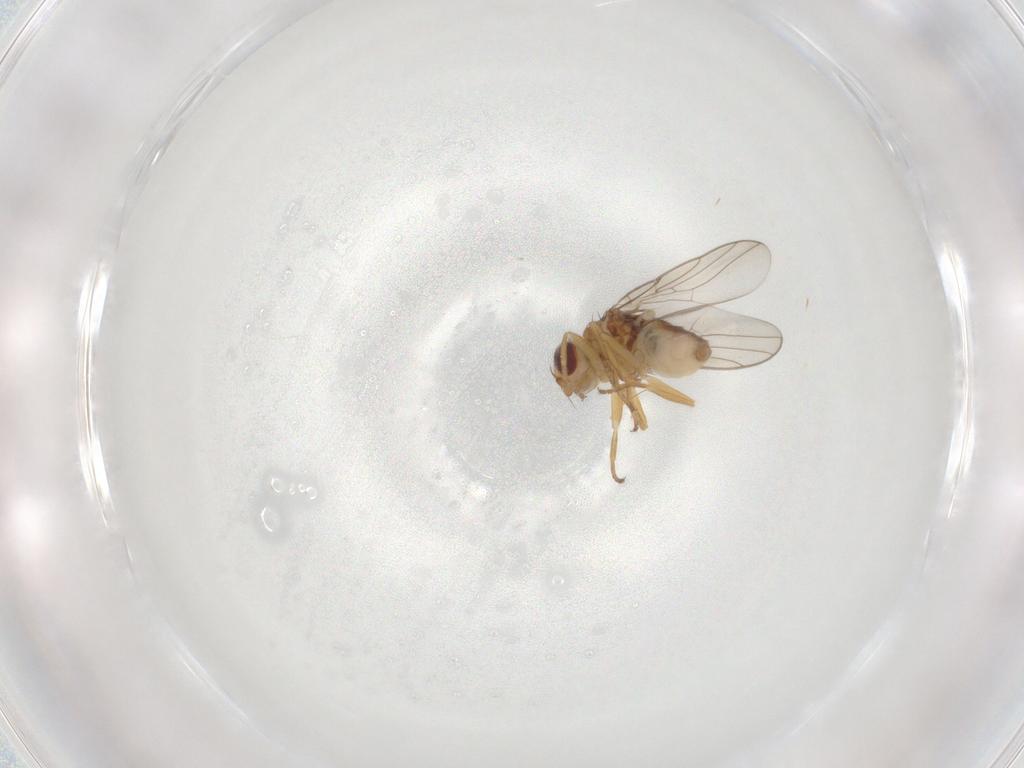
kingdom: Animalia
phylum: Arthropoda
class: Insecta
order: Diptera
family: Chloropidae
